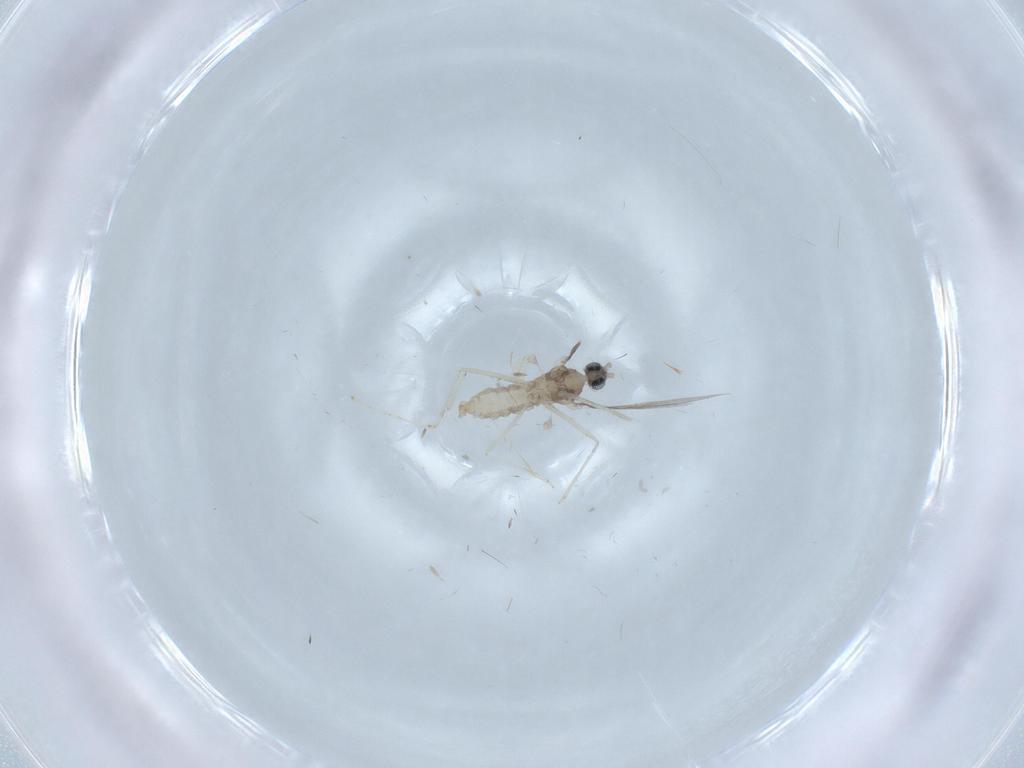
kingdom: Animalia
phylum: Arthropoda
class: Insecta
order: Diptera
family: Cecidomyiidae
